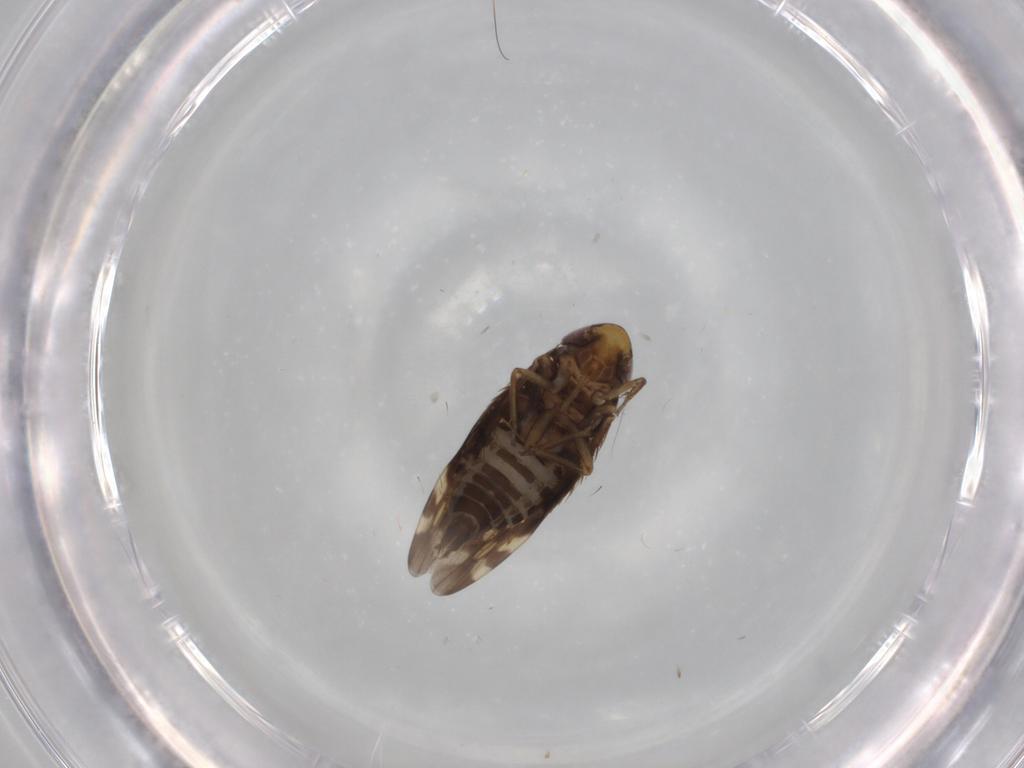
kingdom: Animalia
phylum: Arthropoda
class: Insecta
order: Hemiptera
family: Cicadellidae
